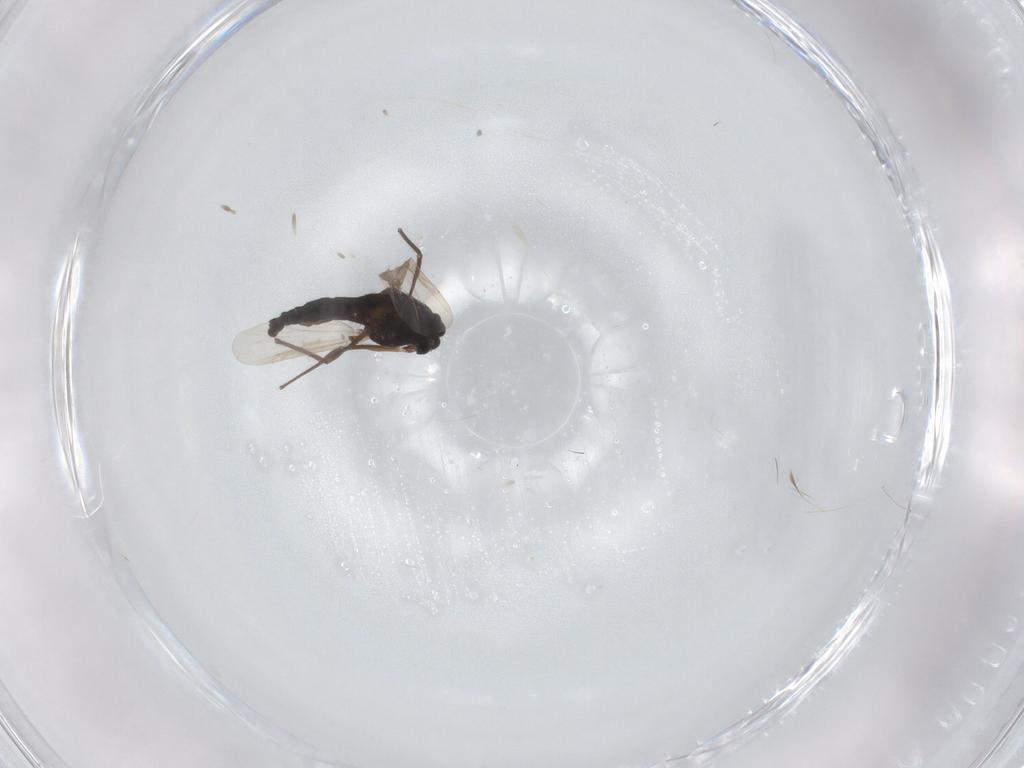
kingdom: Animalia
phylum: Arthropoda
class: Insecta
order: Diptera
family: Chironomidae
